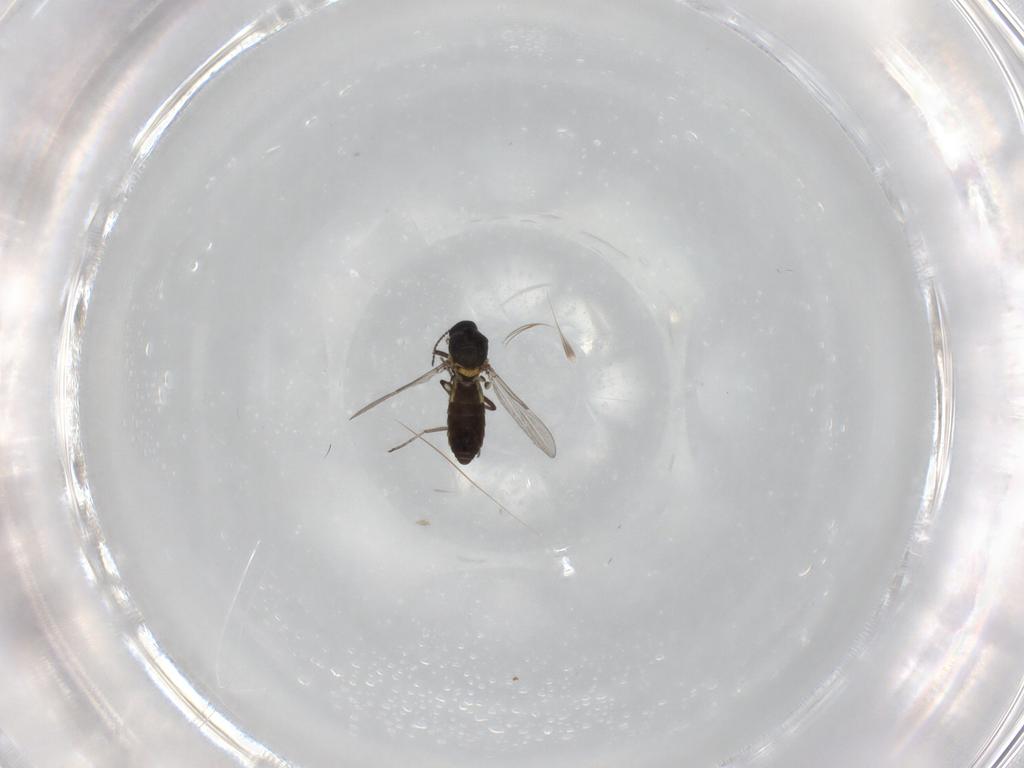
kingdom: Animalia
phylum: Arthropoda
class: Insecta
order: Diptera
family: Ceratopogonidae
